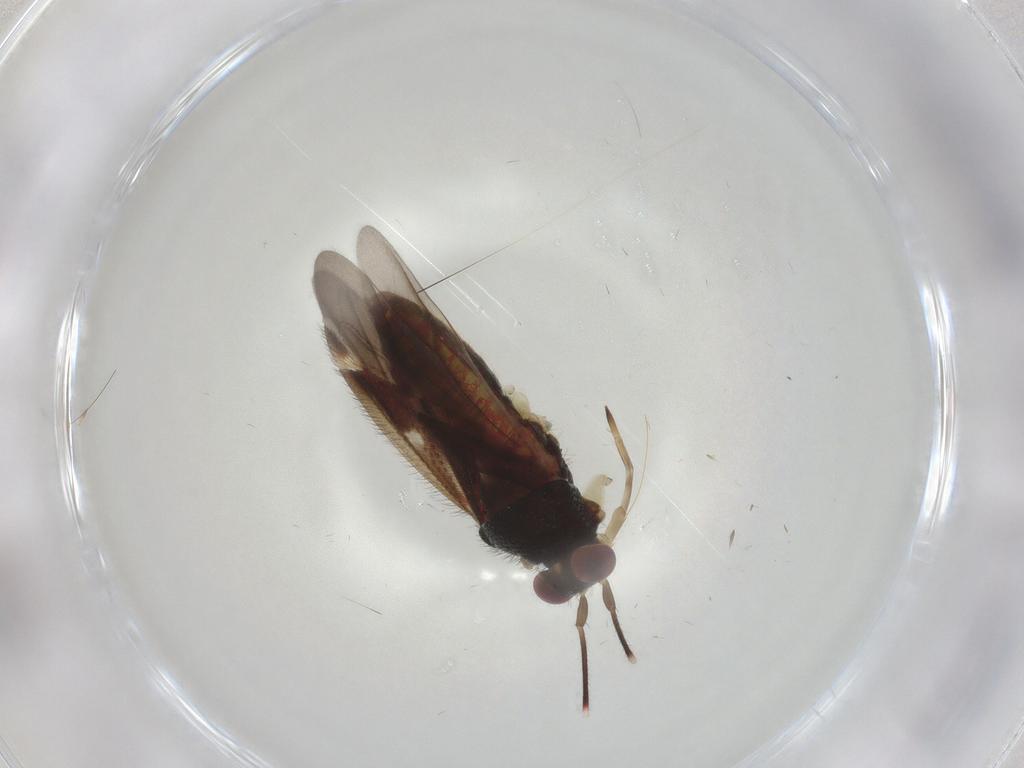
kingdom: Animalia
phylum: Arthropoda
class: Insecta
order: Hemiptera
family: Miridae
